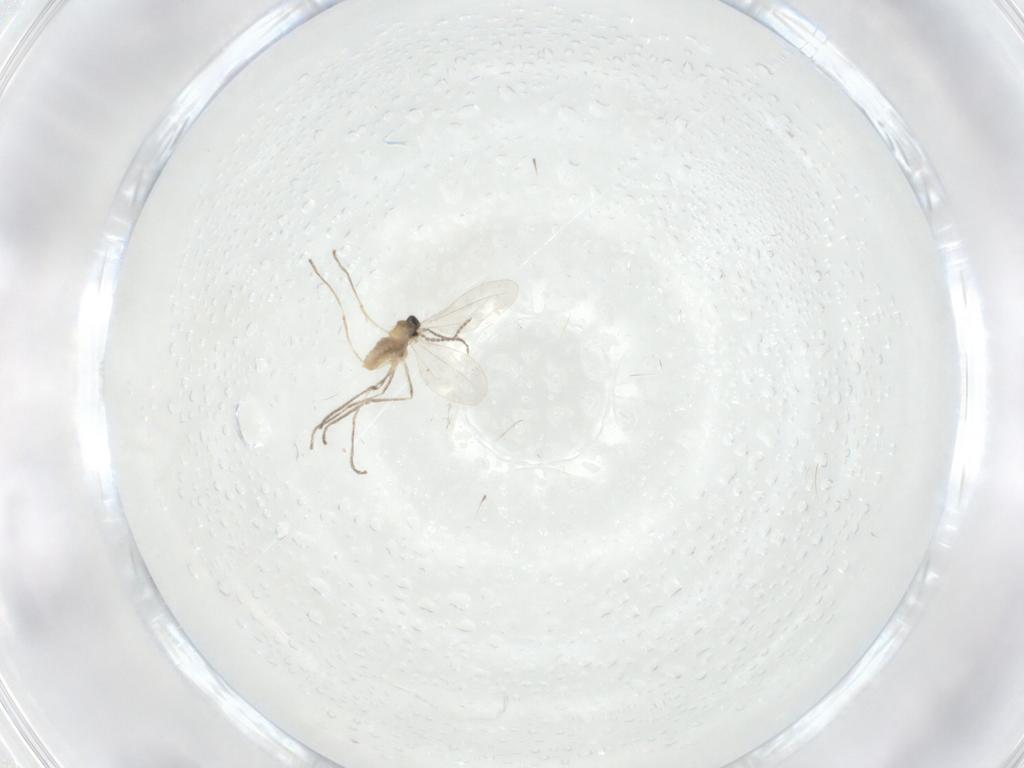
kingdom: Animalia
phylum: Arthropoda
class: Insecta
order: Diptera
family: Cecidomyiidae
